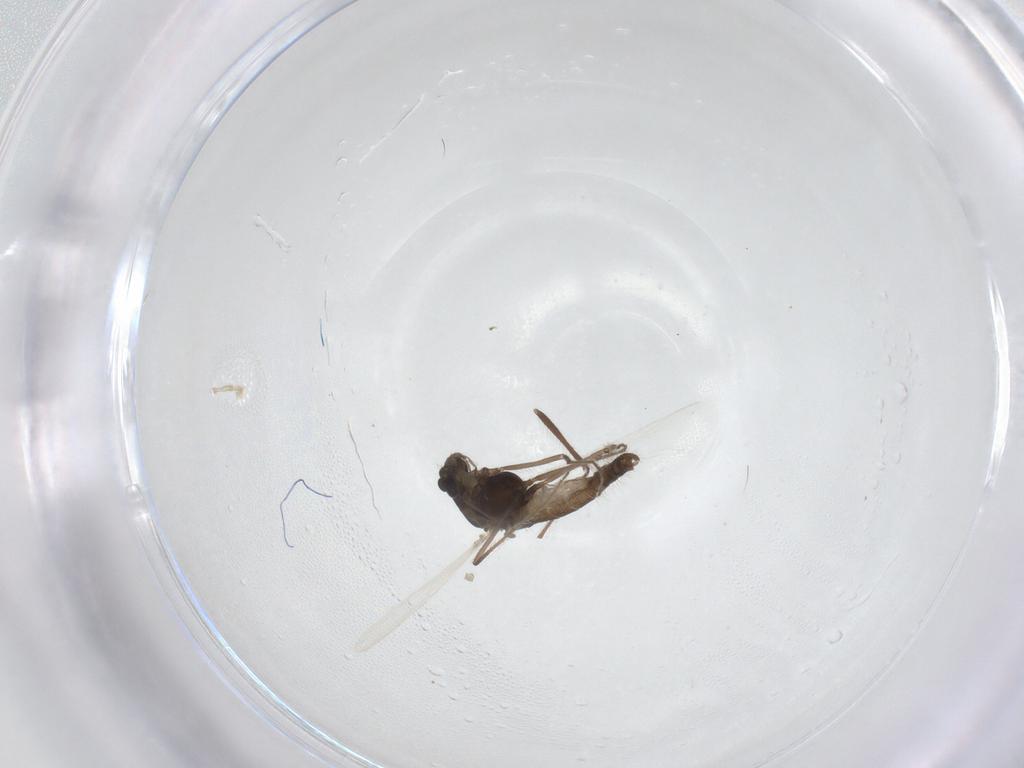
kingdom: Animalia
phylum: Arthropoda
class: Insecta
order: Diptera
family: Chironomidae
